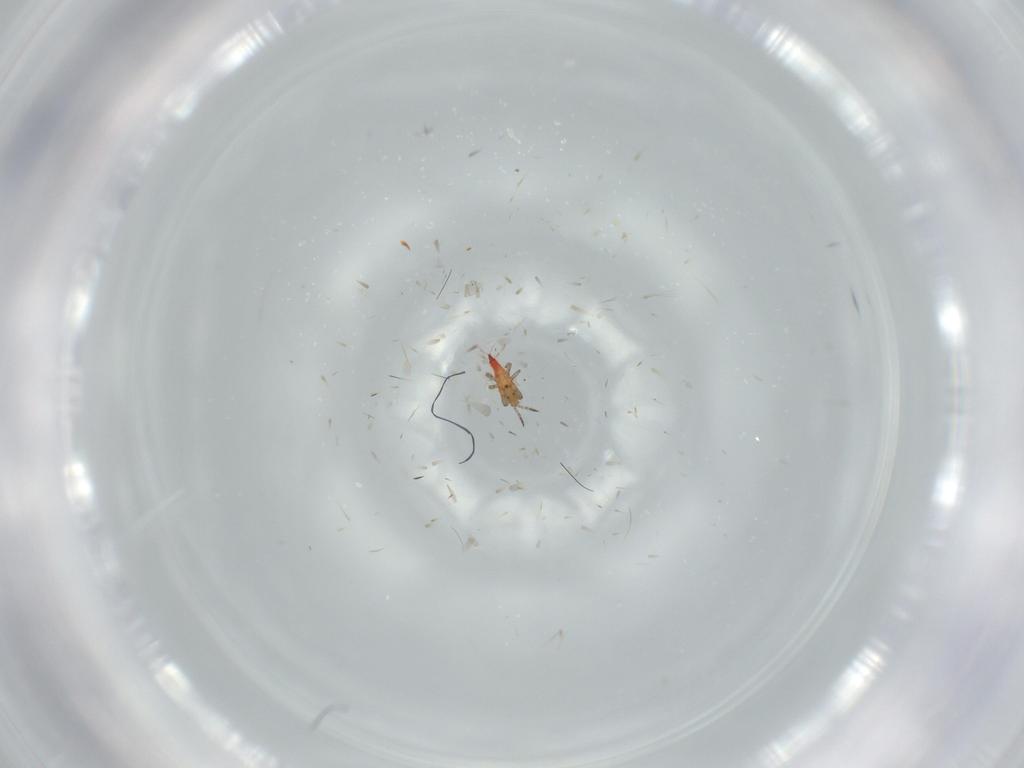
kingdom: Animalia
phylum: Arthropoda
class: Insecta
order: Thysanoptera
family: Phlaeothripidae
